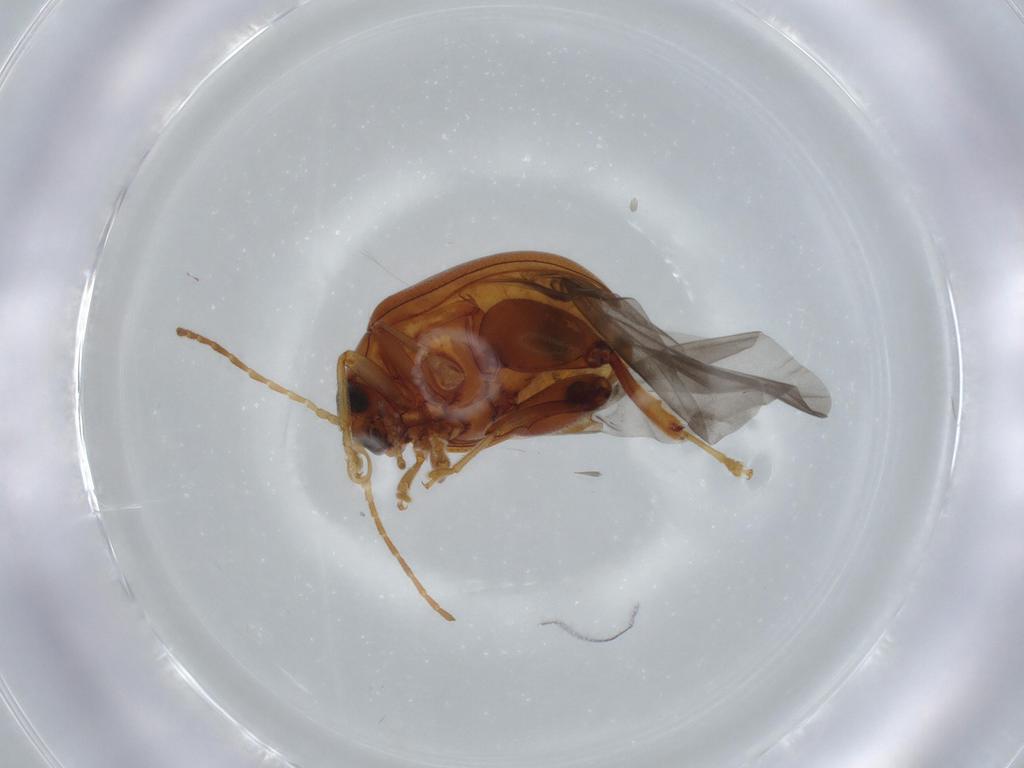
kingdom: Animalia
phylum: Arthropoda
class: Insecta
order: Coleoptera
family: Chrysomelidae
